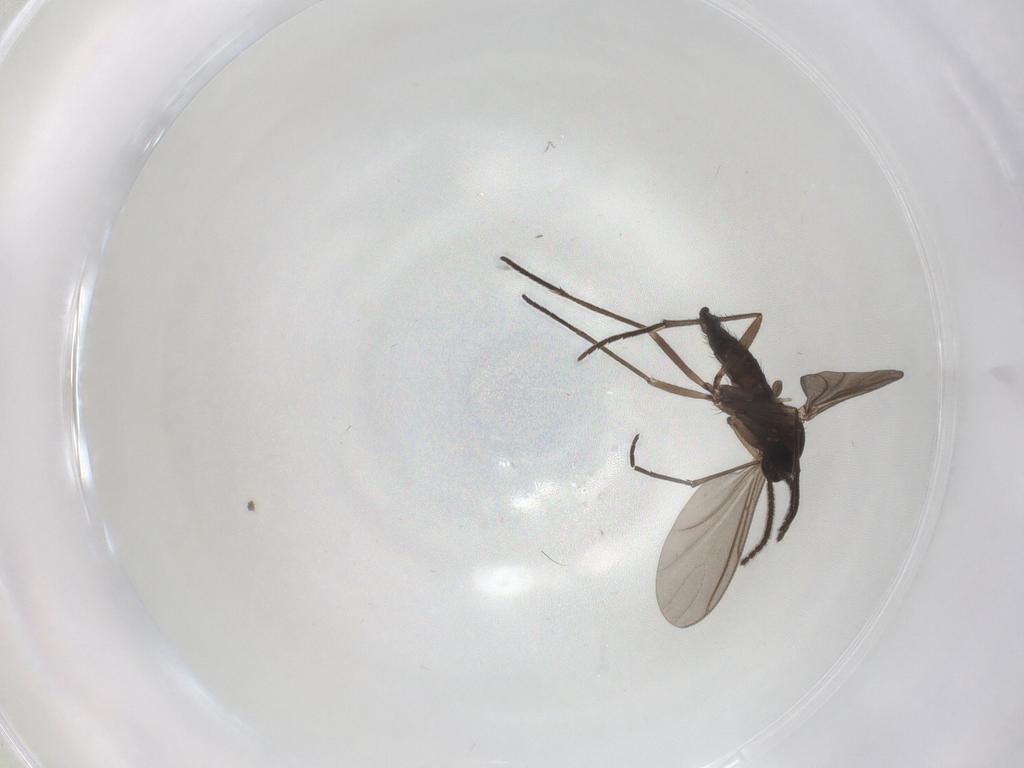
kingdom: Animalia
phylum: Arthropoda
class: Insecta
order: Diptera
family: Sciaridae
